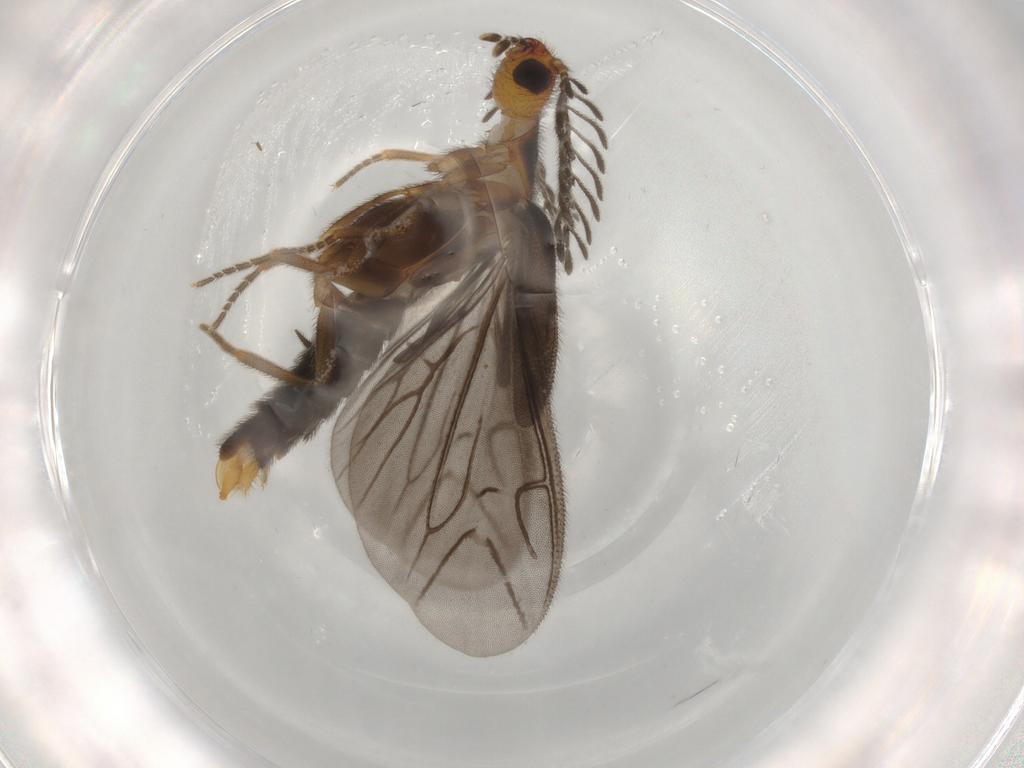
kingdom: Animalia
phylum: Arthropoda
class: Insecta
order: Coleoptera
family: Phengodidae
